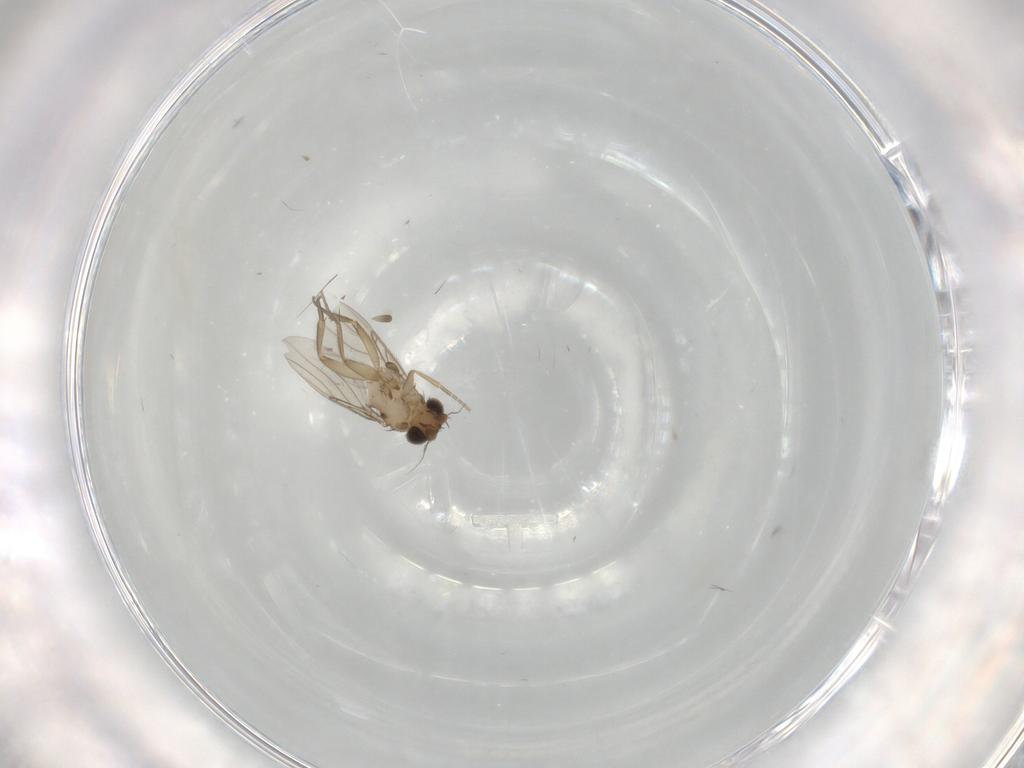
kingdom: Animalia
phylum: Arthropoda
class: Insecta
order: Diptera
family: Phoridae
